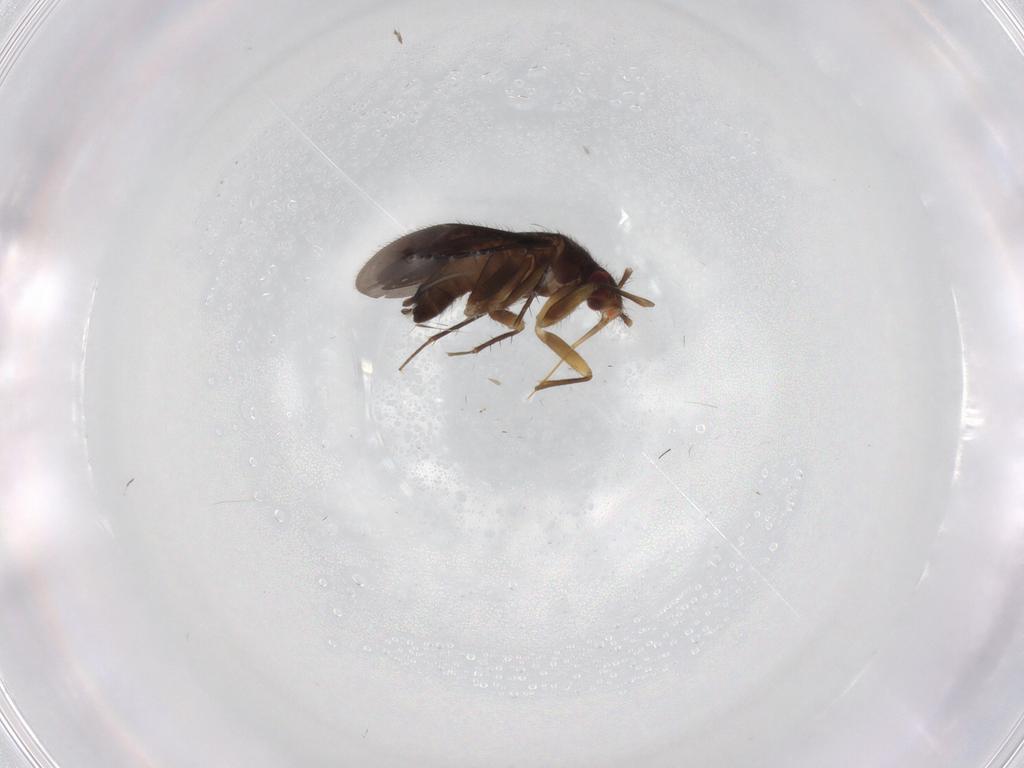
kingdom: Animalia
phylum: Arthropoda
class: Insecta
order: Hemiptera
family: Ceratocombidae
